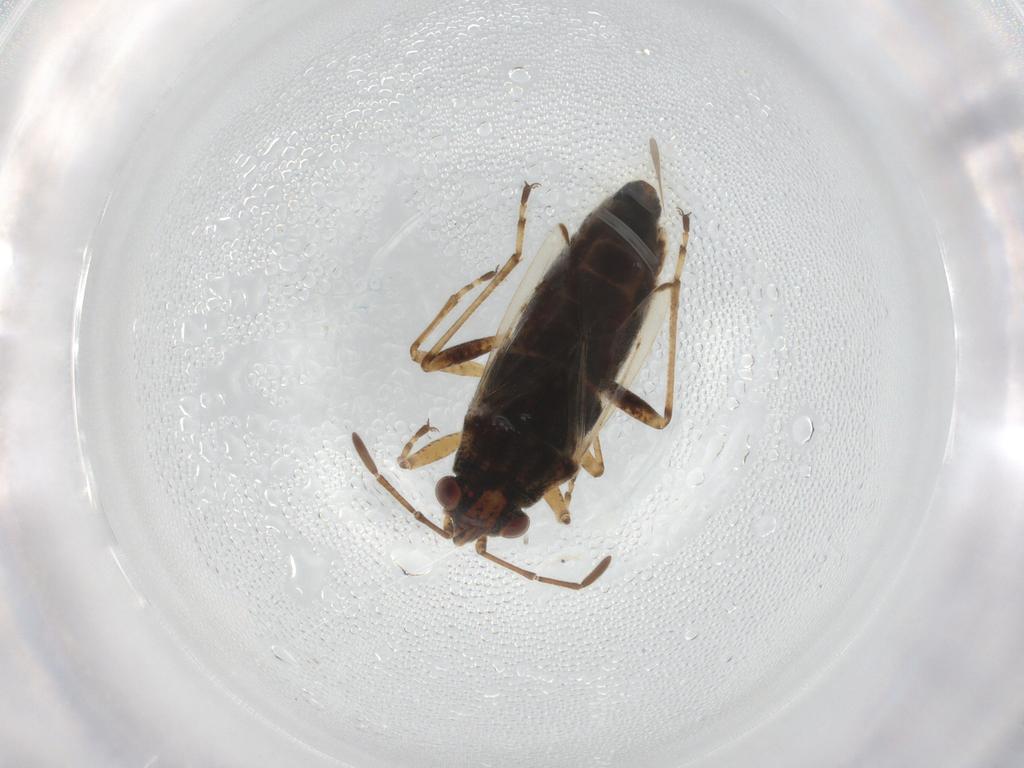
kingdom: Animalia
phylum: Arthropoda
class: Insecta
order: Hemiptera
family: Lygaeidae
